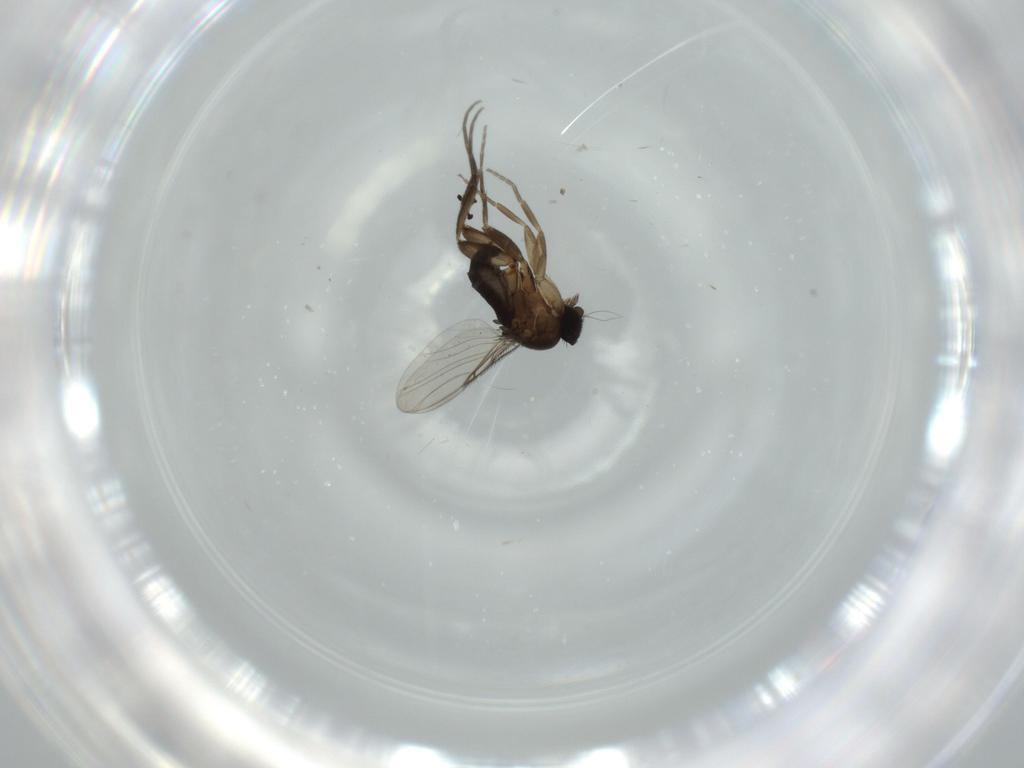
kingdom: Animalia
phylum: Arthropoda
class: Insecta
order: Diptera
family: Phoridae
